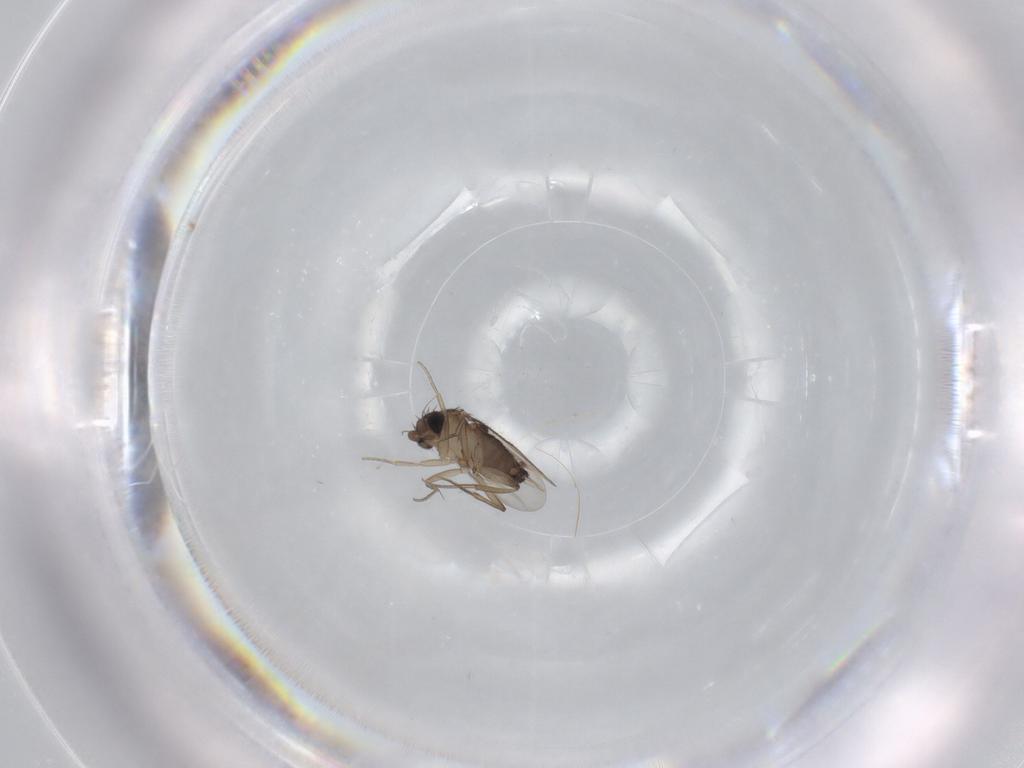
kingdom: Animalia
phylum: Arthropoda
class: Insecta
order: Diptera
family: Phoridae
